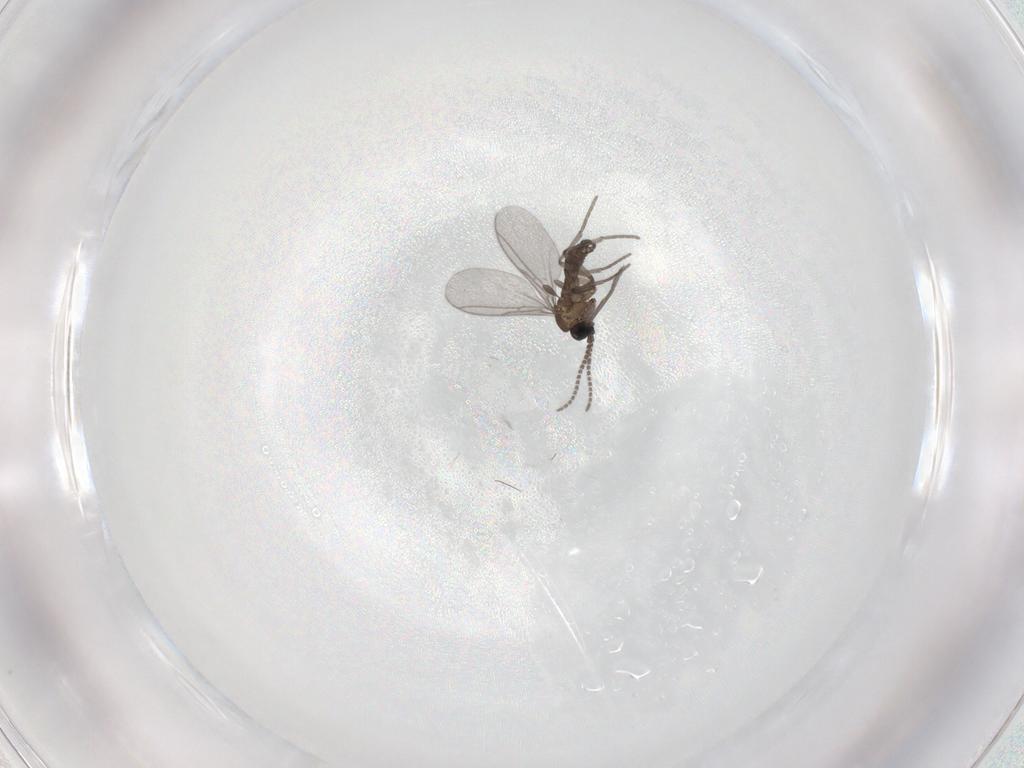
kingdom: Animalia
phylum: Arthropoda
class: Insecta
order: Diptera
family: Sciaridae
